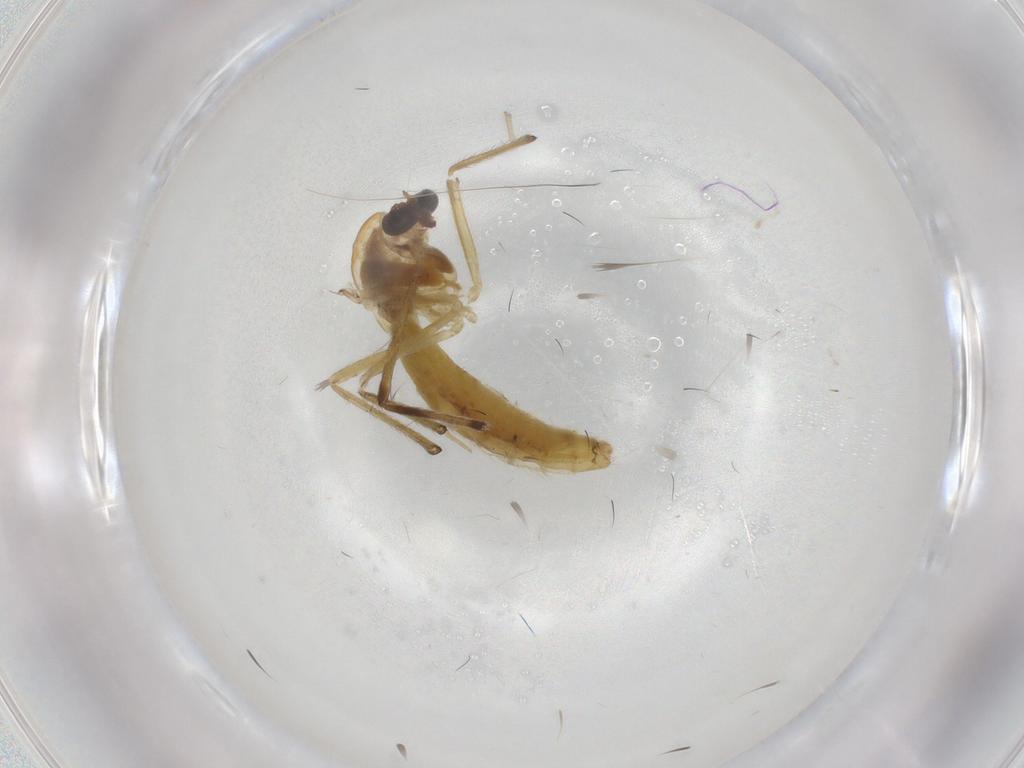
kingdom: Animalia
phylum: Arthropoda
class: Insecta
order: Diptera
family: Chironomidae
